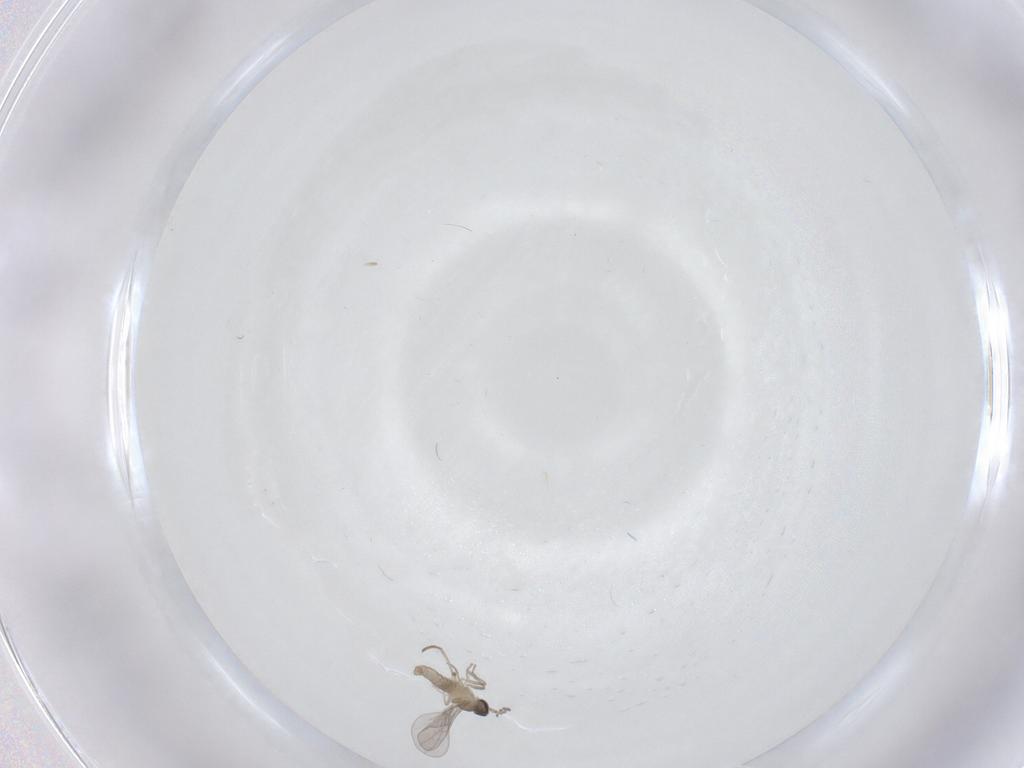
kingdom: Animalia
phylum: Arthropoda
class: Insecta
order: Diptera
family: Cecidomyiidae
